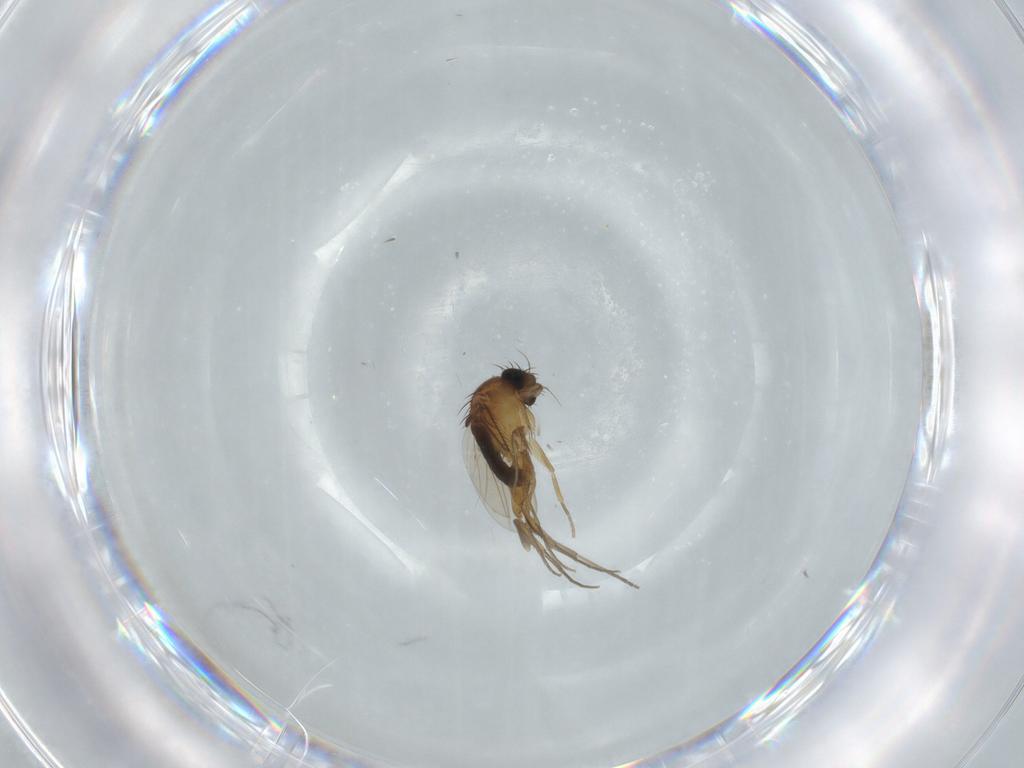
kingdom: Animalia
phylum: Arthropoda
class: Insecta
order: Diptera
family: Phoridae
